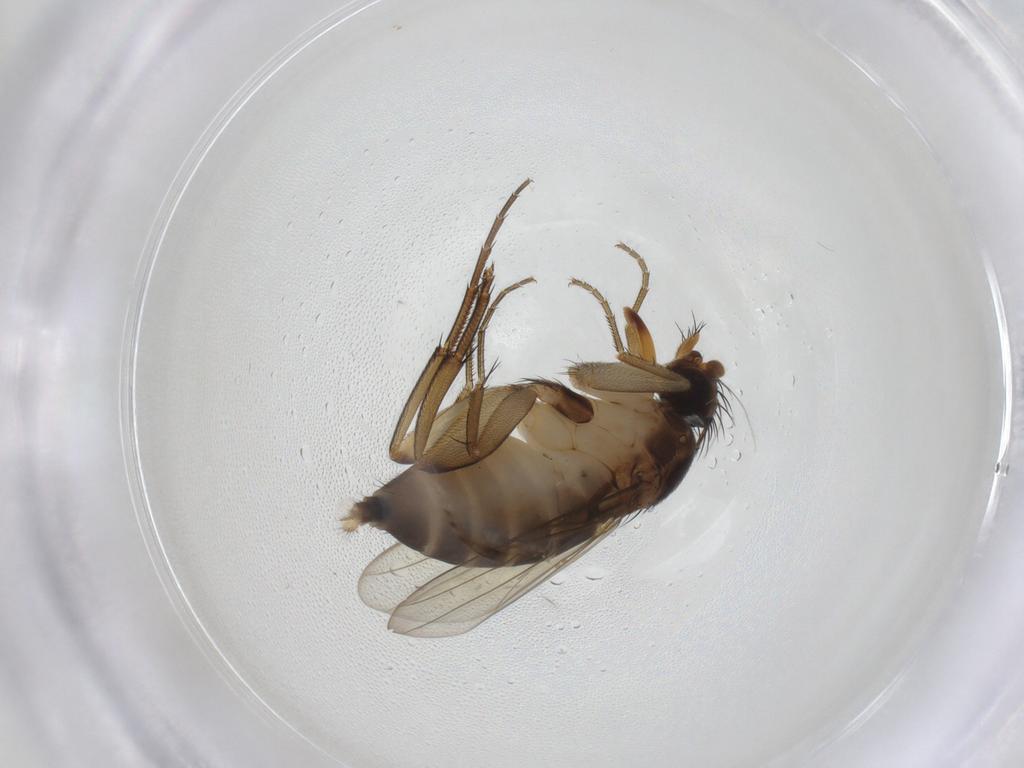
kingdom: Animalia
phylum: Arthropoda
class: Insecta
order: Diptera
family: Phoridae
